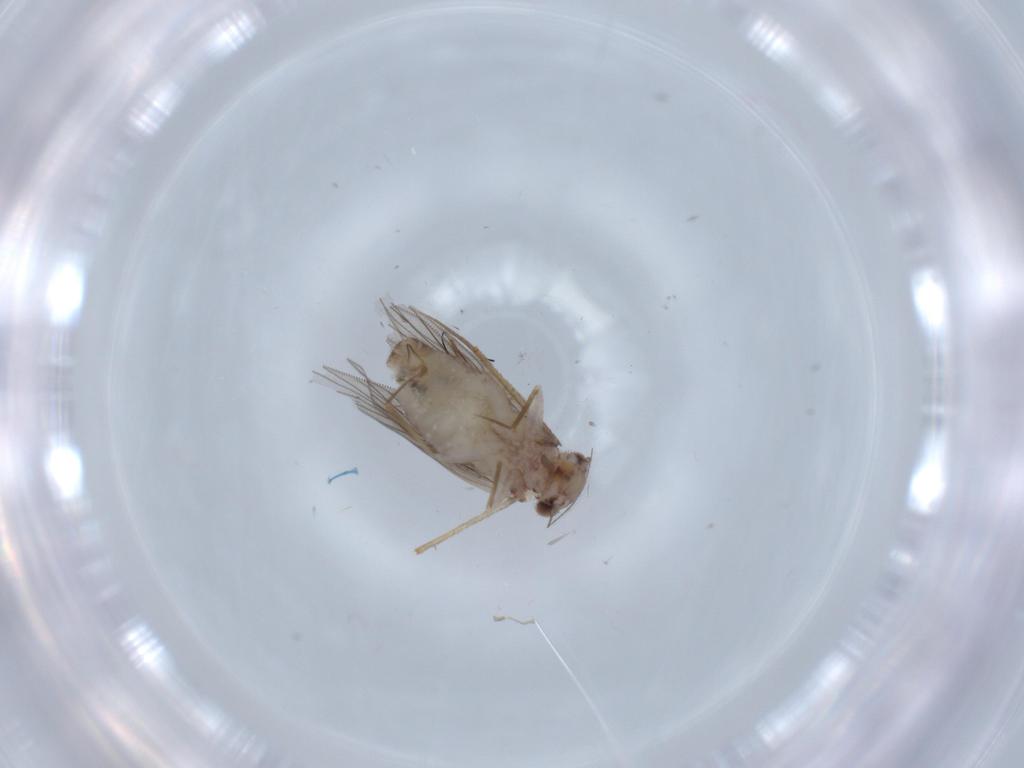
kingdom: Animalia
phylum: Arthropoda
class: Insecta
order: Psocodea
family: Lepidopsocidae
